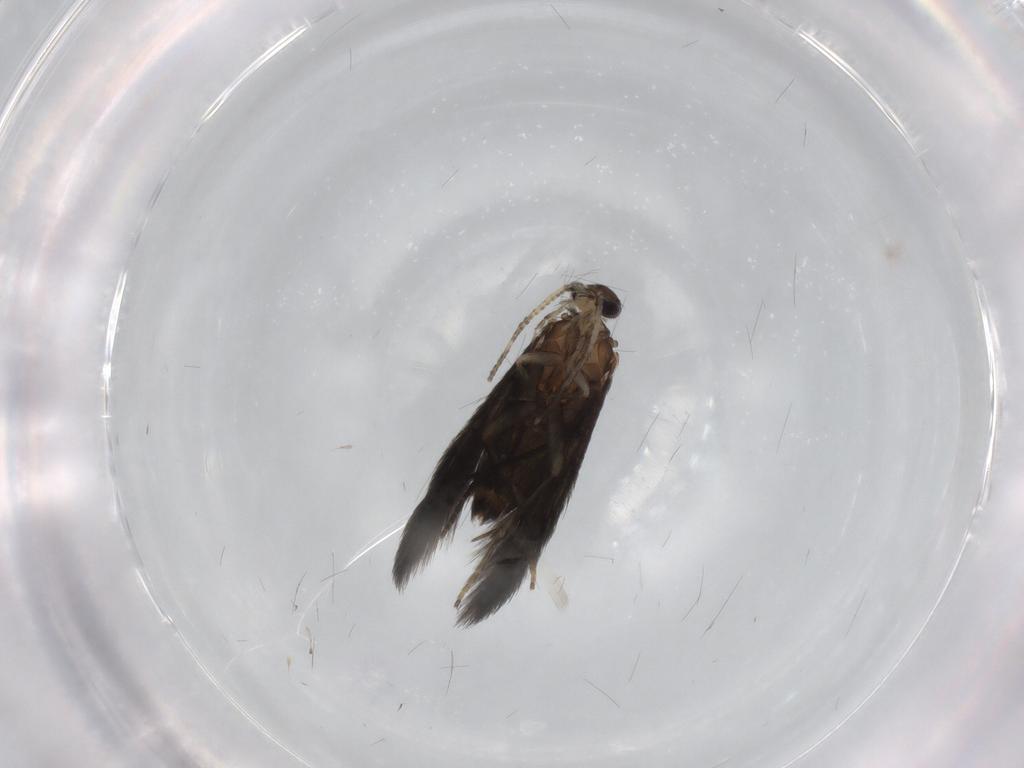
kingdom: Animalia
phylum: Arthropoda
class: Insecta
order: Trichoptera
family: Hydroptilidae
